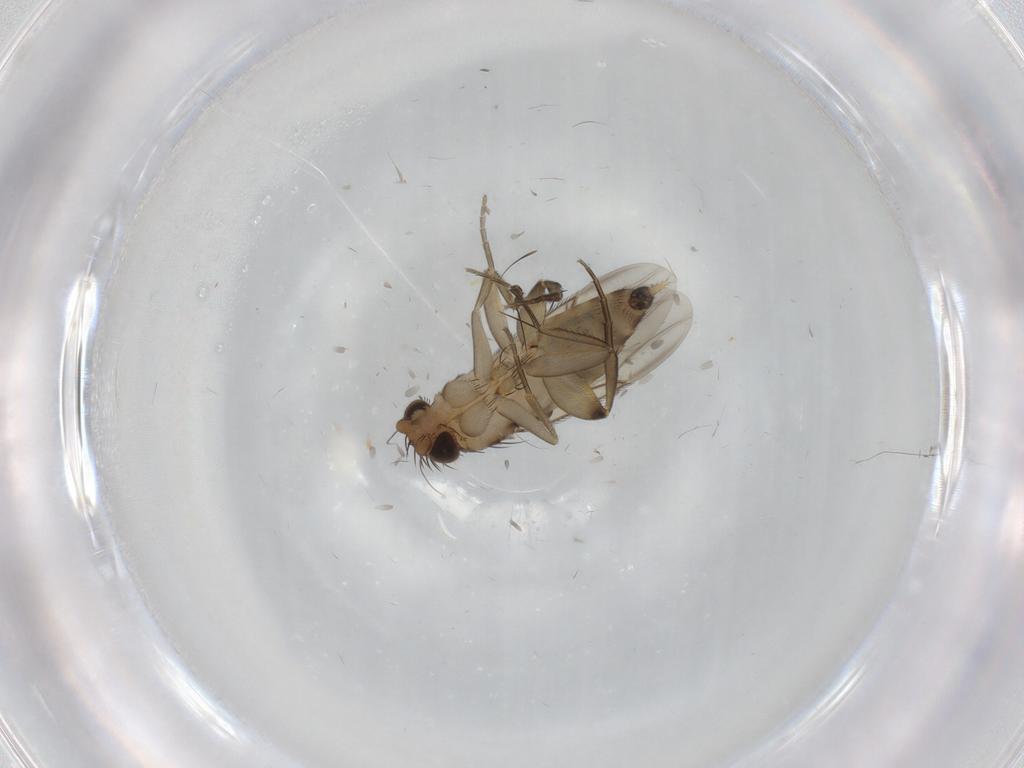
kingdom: Animalia
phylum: Arthropoda
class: Insecta
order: Diptera
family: Phoridae
